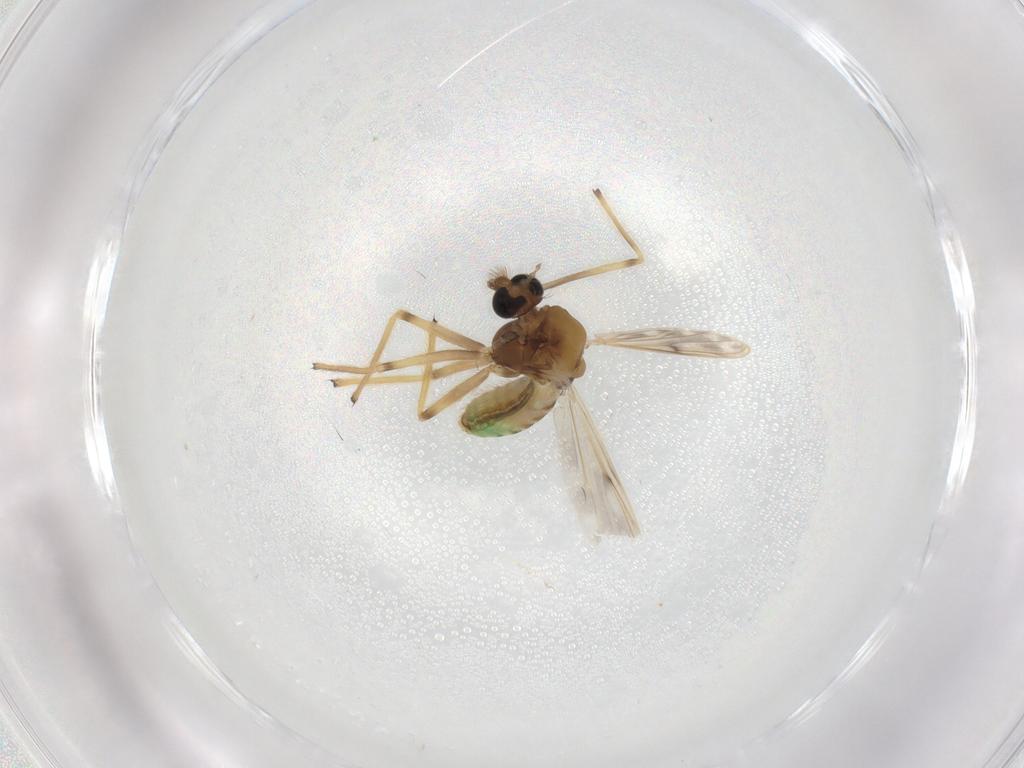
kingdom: Animalia
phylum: Arthropoda
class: Insecta
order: Diptera
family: Chironomidae
